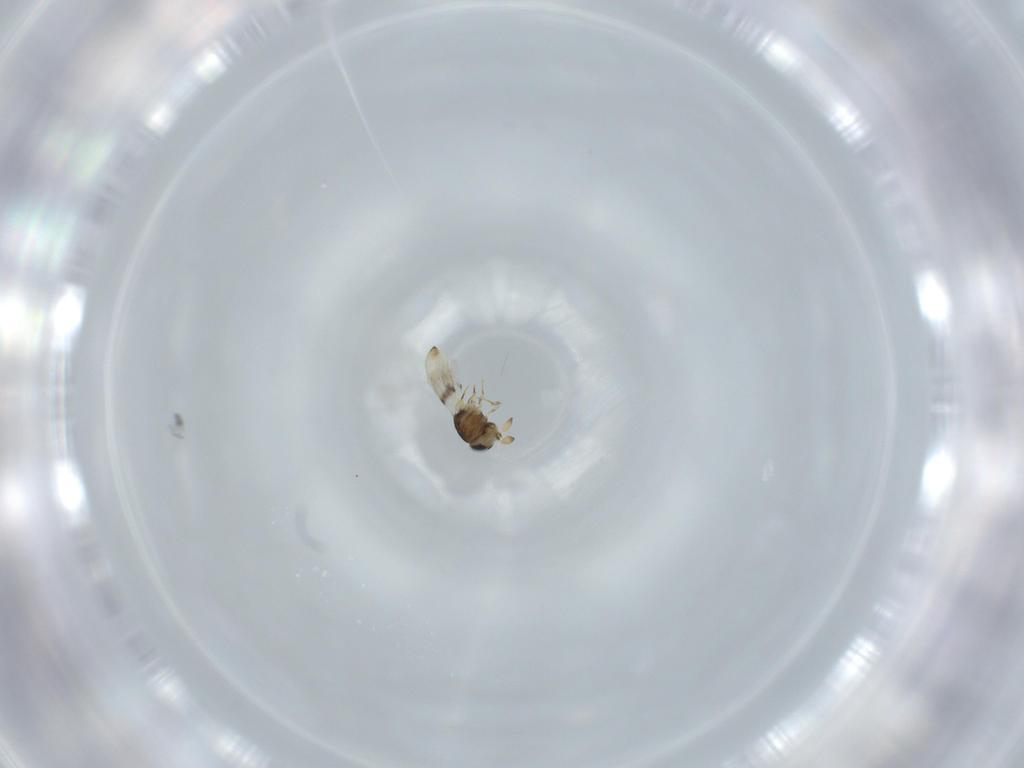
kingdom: Animalia
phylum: Arthropoda
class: Insecta
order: Hymenoptera
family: Scelionidae
